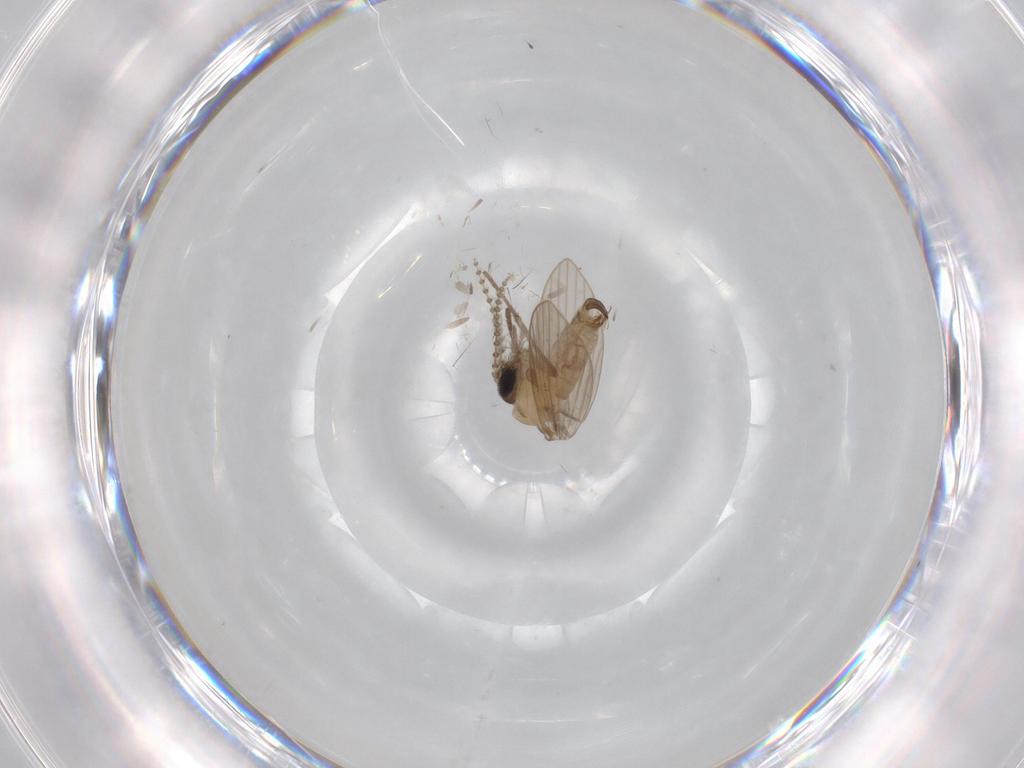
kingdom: Animalia
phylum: Arthropoda
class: Insecta
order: Diptera
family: Psychodidae
